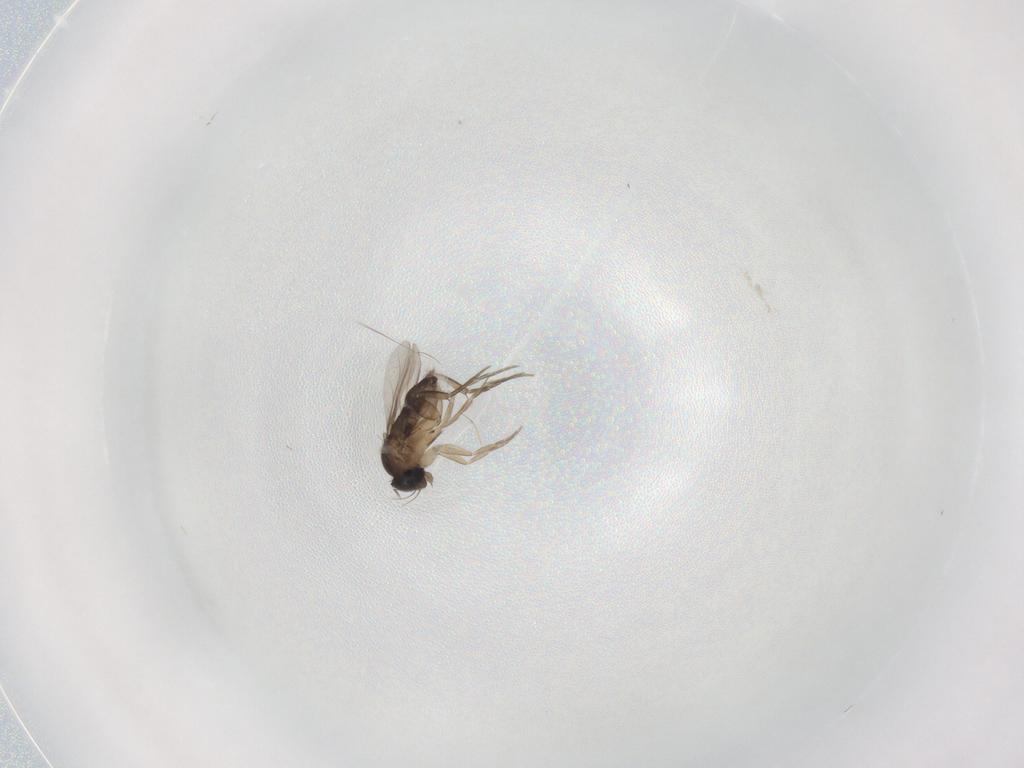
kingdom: Animalia
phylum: Arthropoda
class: Insecta
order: Diptera
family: Phoridae
